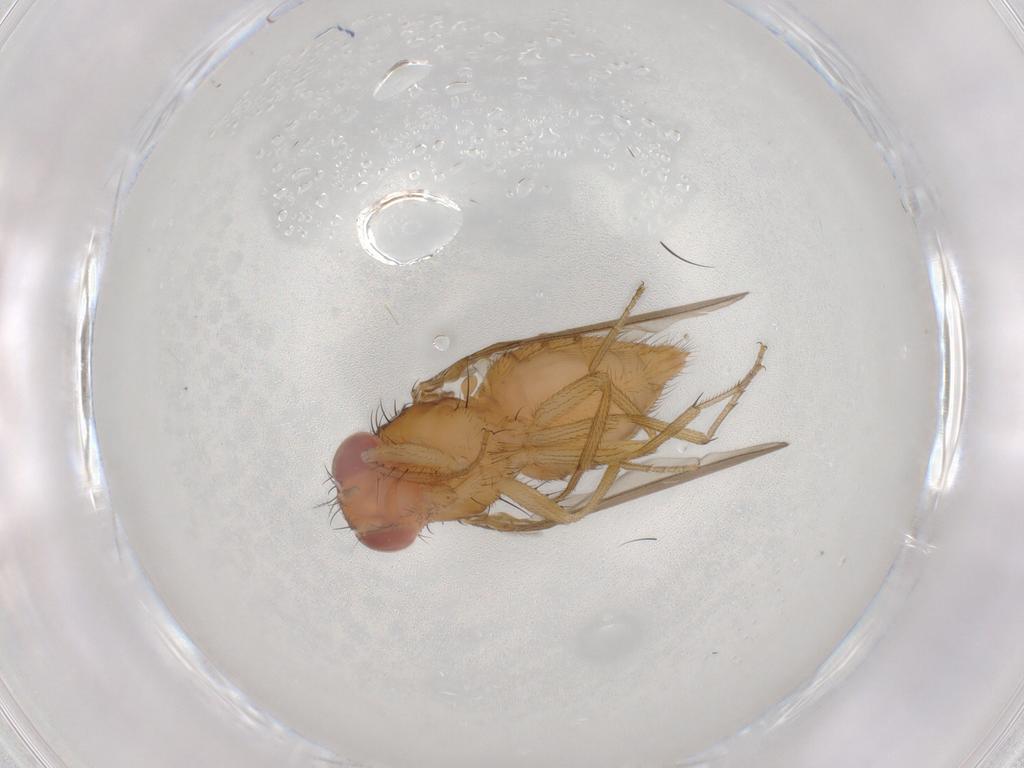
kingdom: Animalia
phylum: Arthropoda
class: Insecta
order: Diptera
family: Drosophilidae
